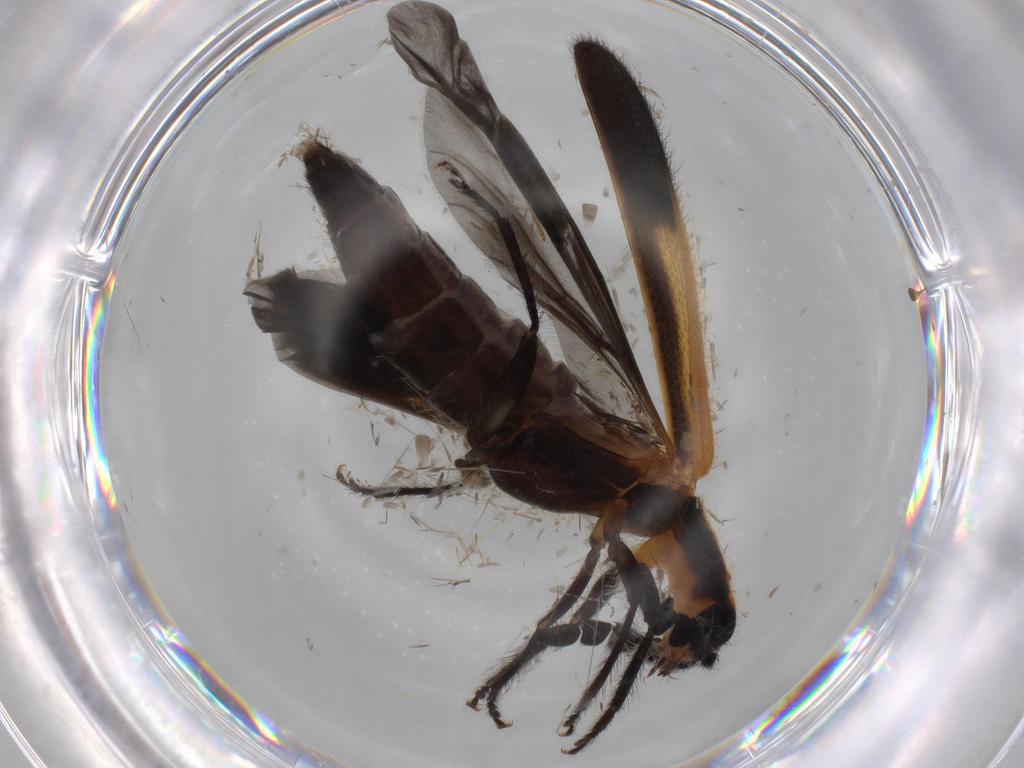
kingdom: Animalia
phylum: Arthropoda
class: Insecta
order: Coleoptera
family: Cleridae
